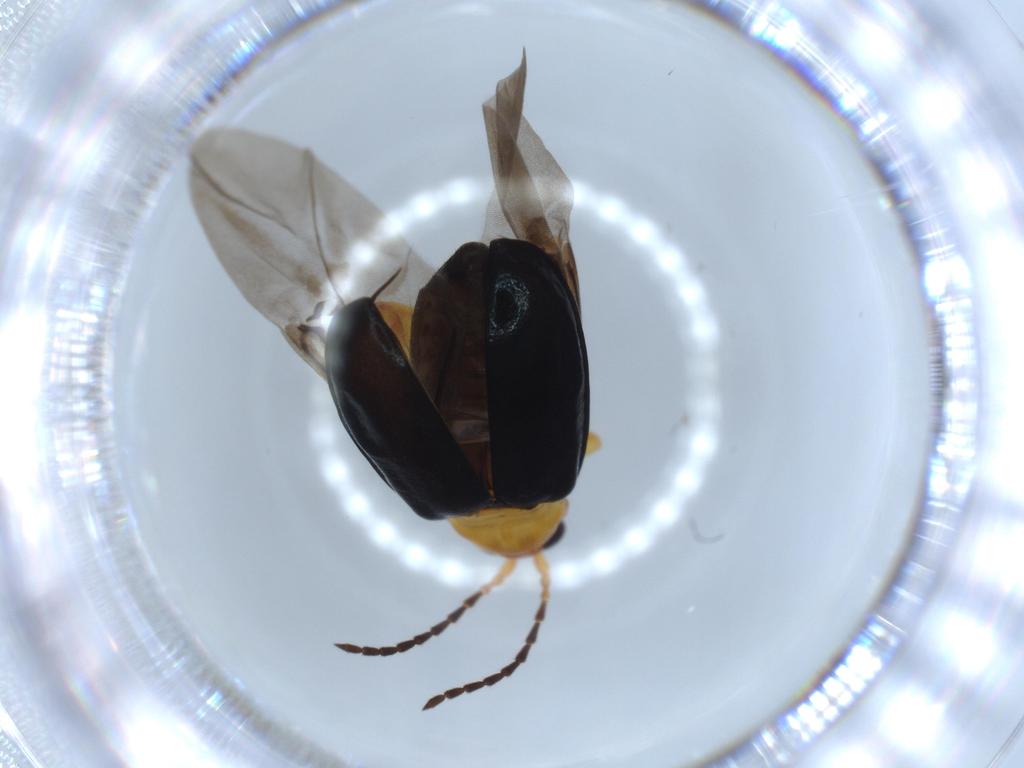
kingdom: Animalia
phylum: Arthropoda
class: Insecta
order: Coleoptera
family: Chrysomelidae
